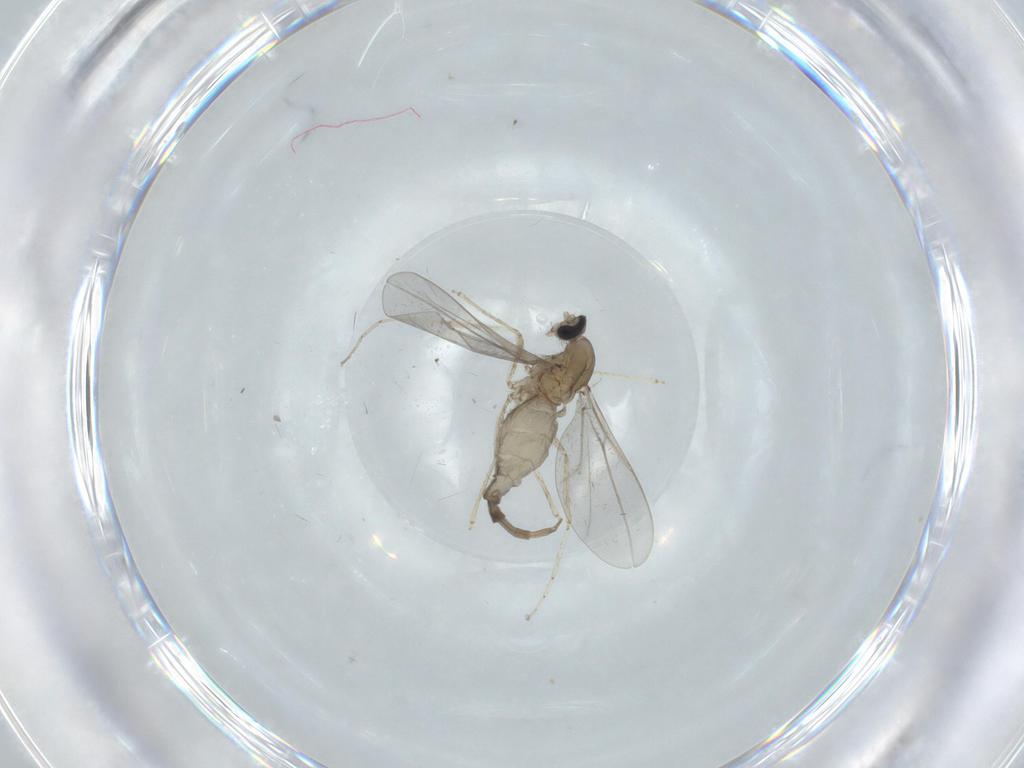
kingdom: Animalia
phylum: Arthropoda
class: Insecta
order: Diptera
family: Cecidomyiidae
